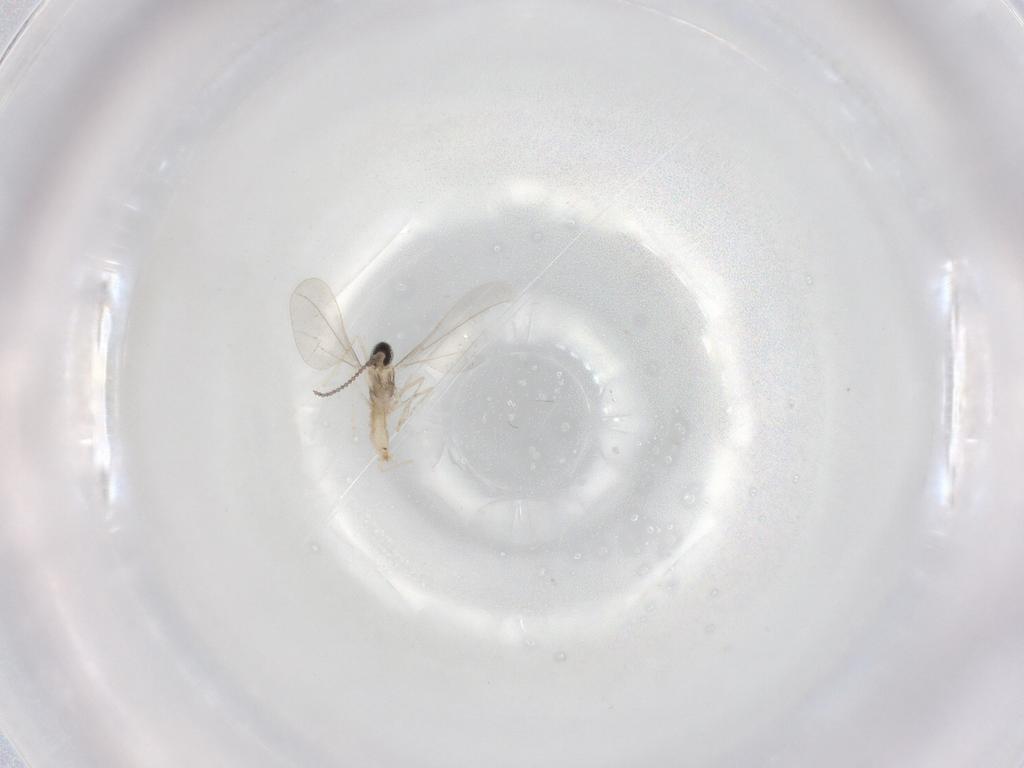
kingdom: Animalia
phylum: Arthropoda
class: Insecta
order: Diptera
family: Cecidomyiidae
